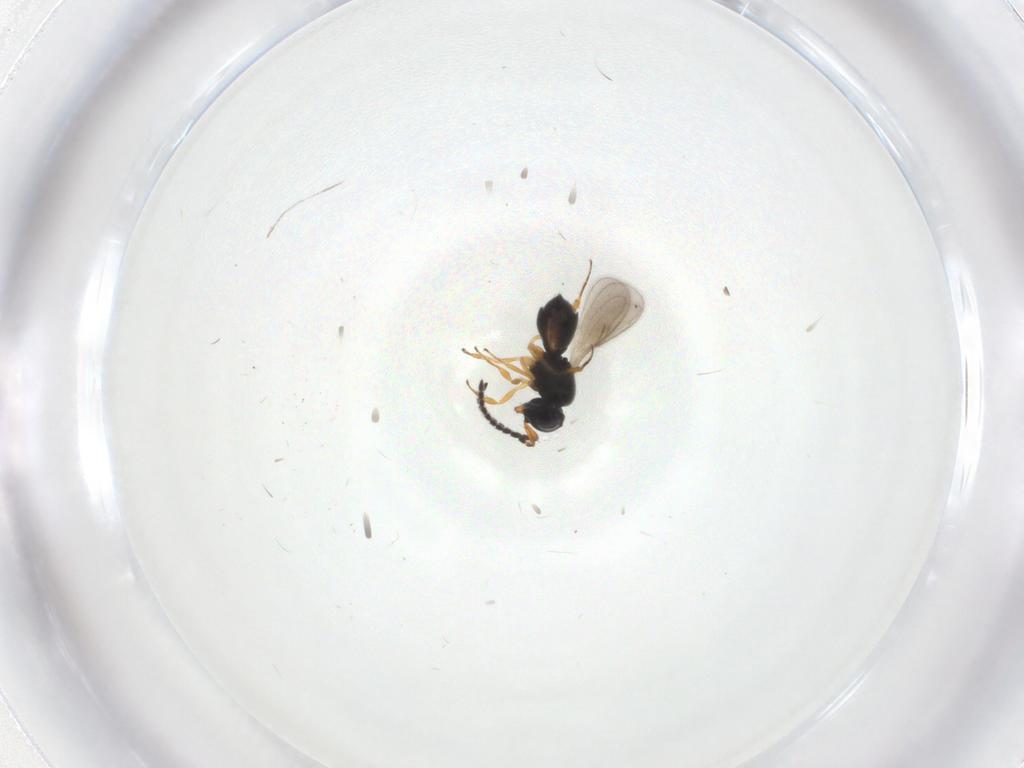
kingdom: Animalia
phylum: Arthropoda
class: Insecta
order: Hymenoptera
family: Scelionidae
